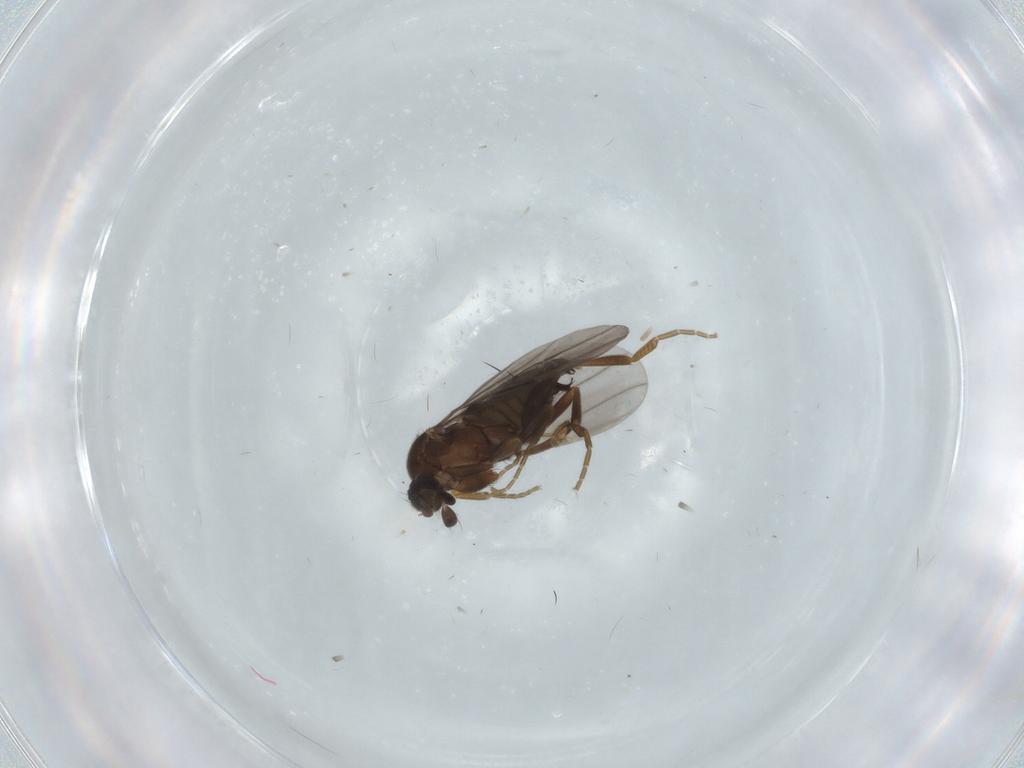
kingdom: Animalia
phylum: Arthropoda
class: Insecta
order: Diptera
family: Phoridae
